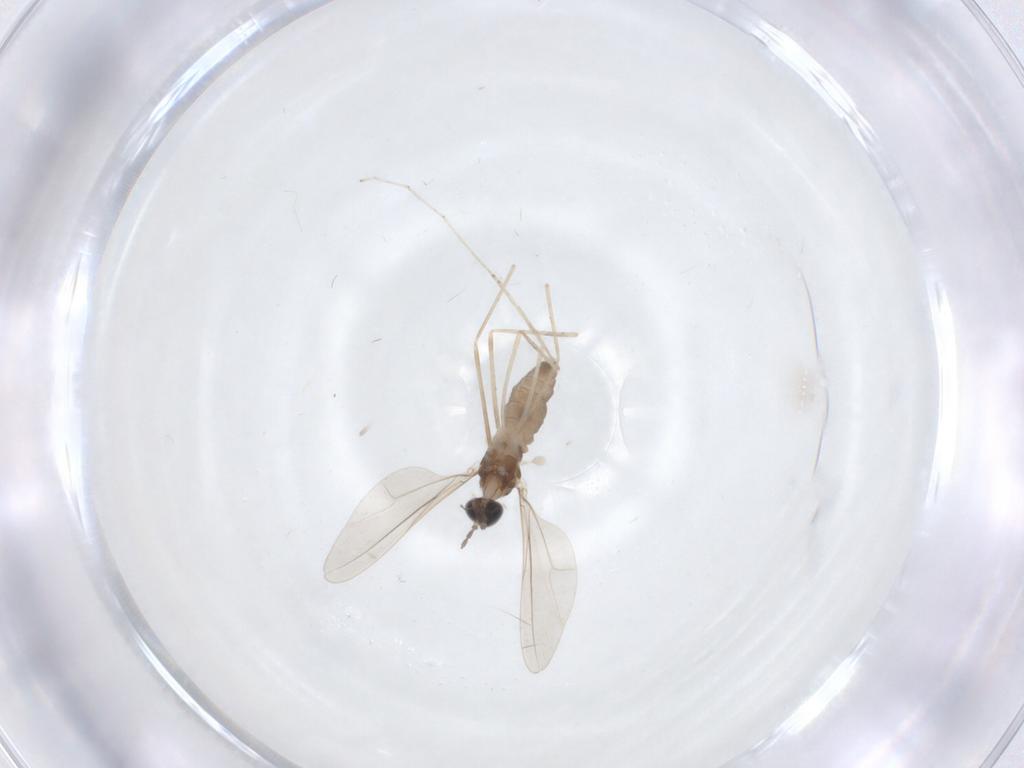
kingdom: Animalia
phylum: Arthropoda
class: Insecta
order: Diptera
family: Cecidomyiidae
